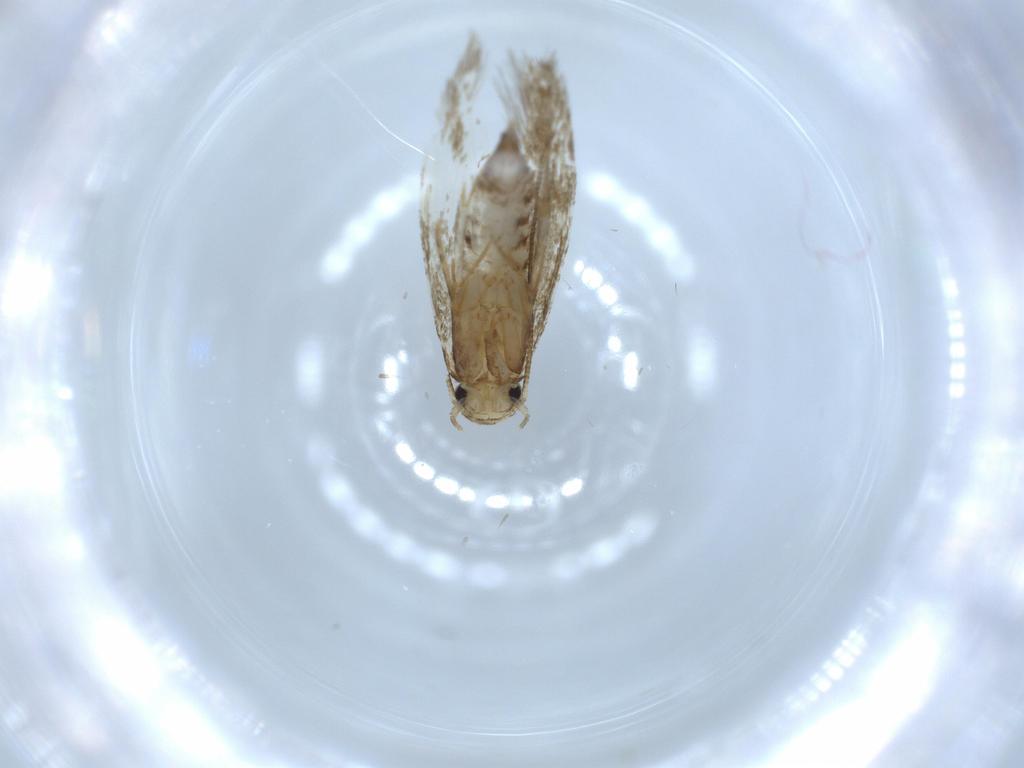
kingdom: Animalia
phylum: Arthropoda
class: Insecta
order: Lepidoptera
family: Tineidae
